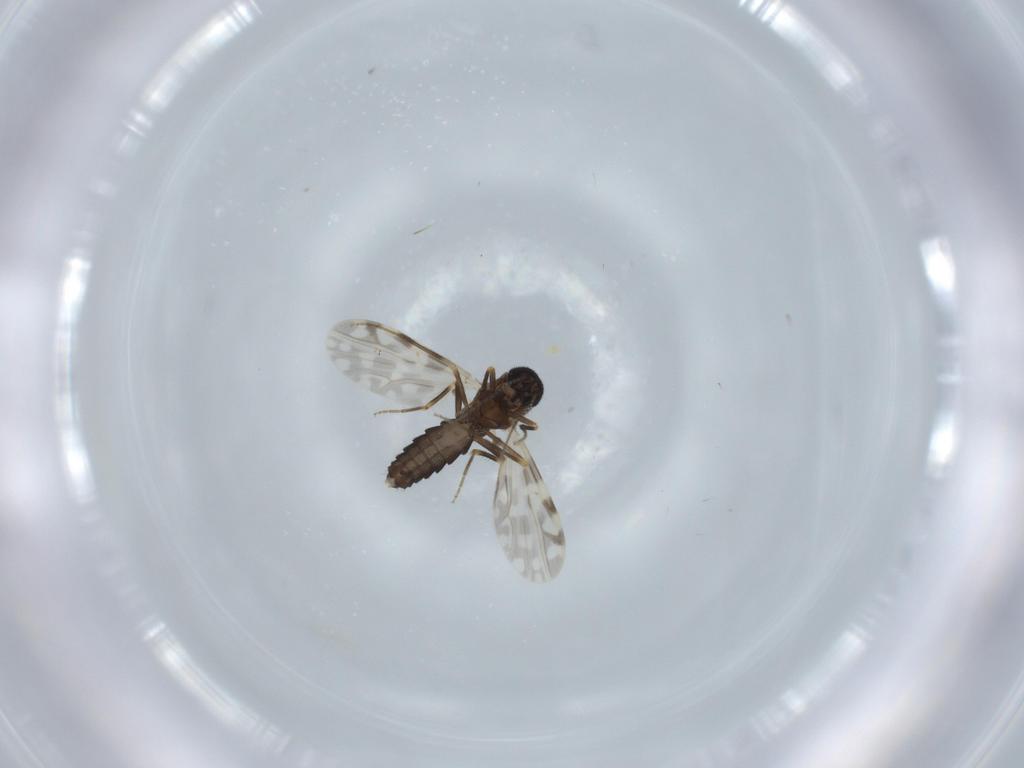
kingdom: Animalia
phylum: Arthropoda
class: Insecta
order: Diptera
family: Ceratopogonidae
